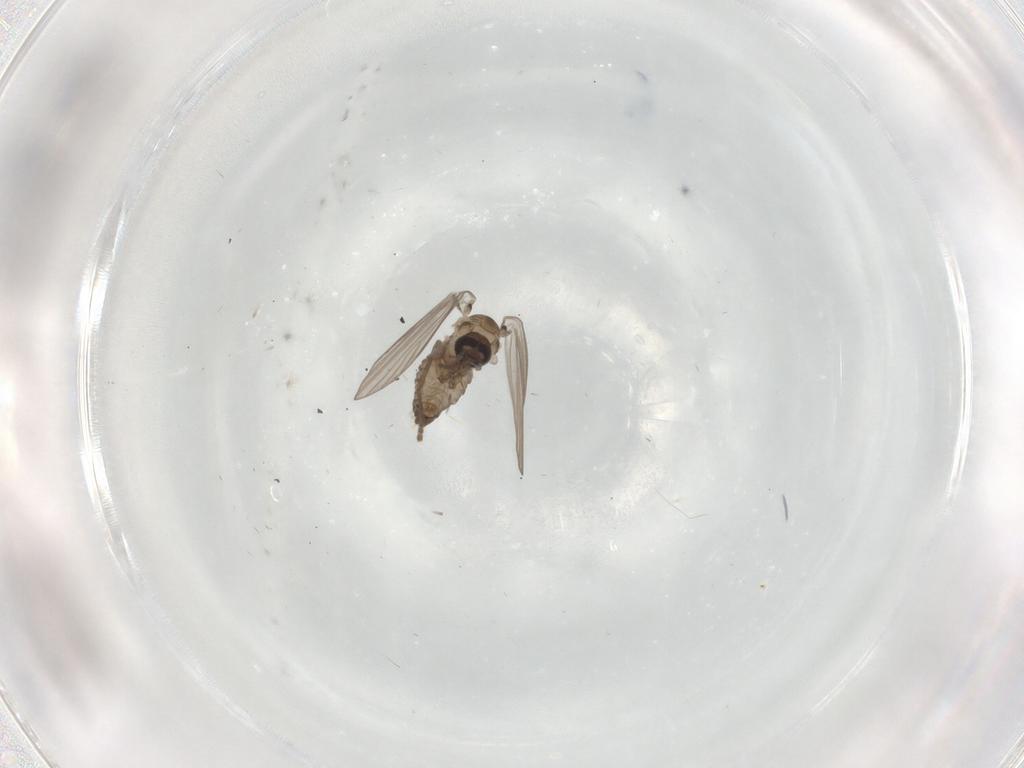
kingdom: Animalia
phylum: Arthropoda
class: Insecta
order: Diptera
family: Psychodidae
